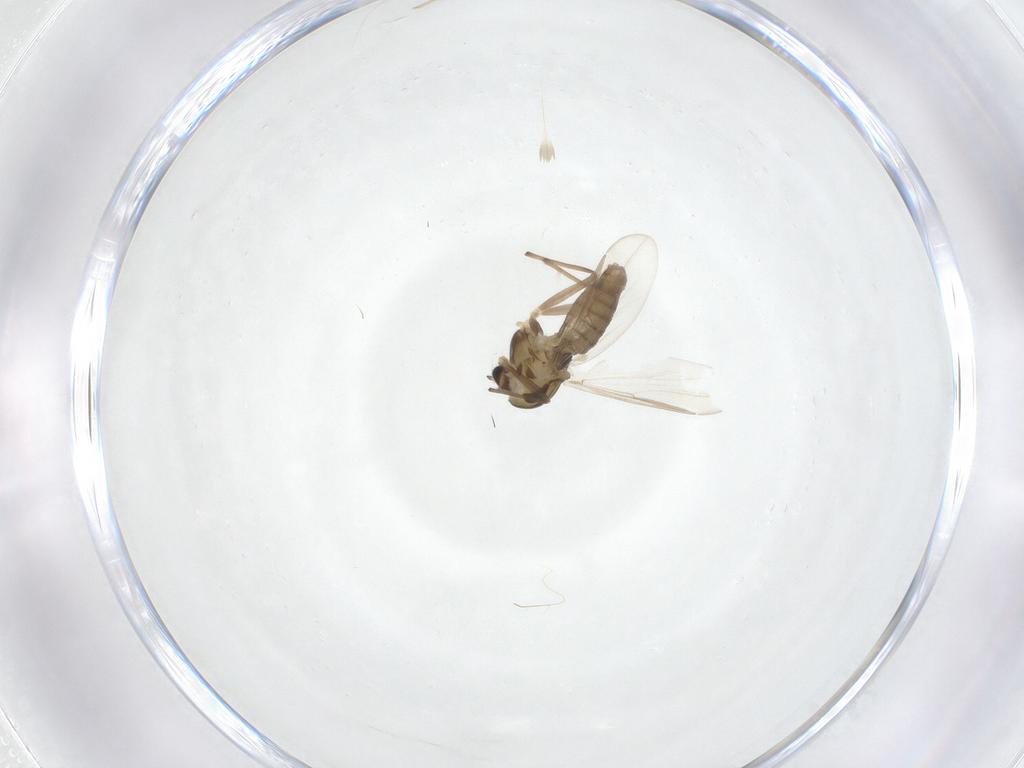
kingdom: Animalia
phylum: Arthropoda
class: Insecta
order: Diptera
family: Chironomidae
